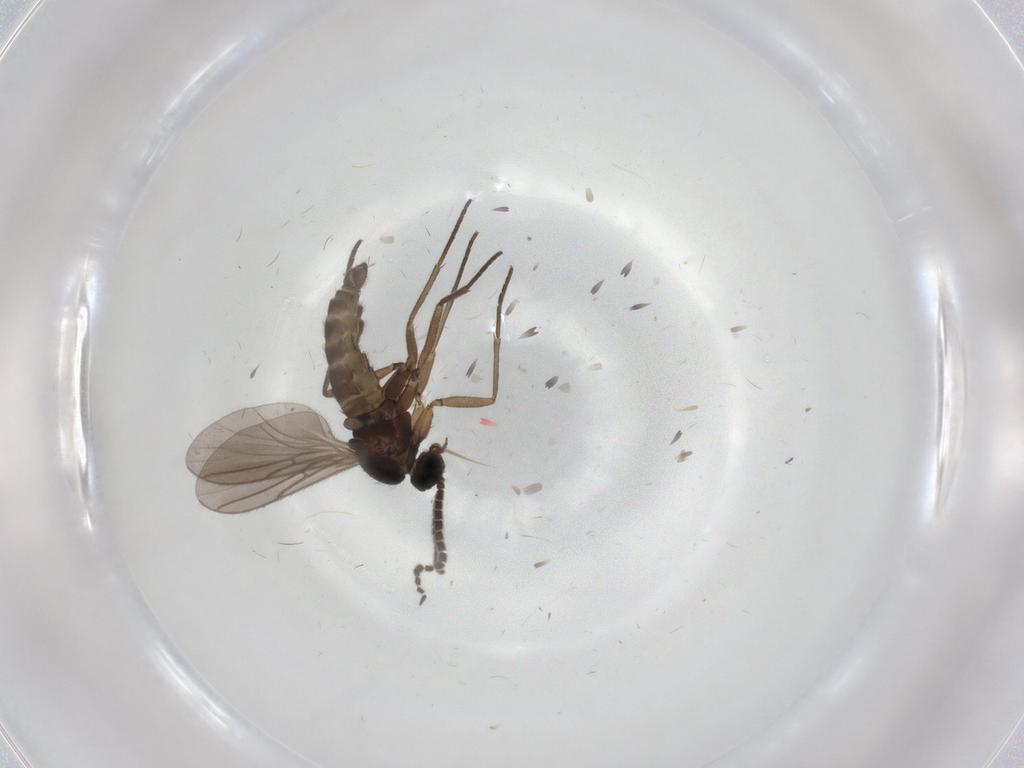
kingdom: Animalia
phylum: Arthropoda
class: Insecta
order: Diptera
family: Sciaridae
